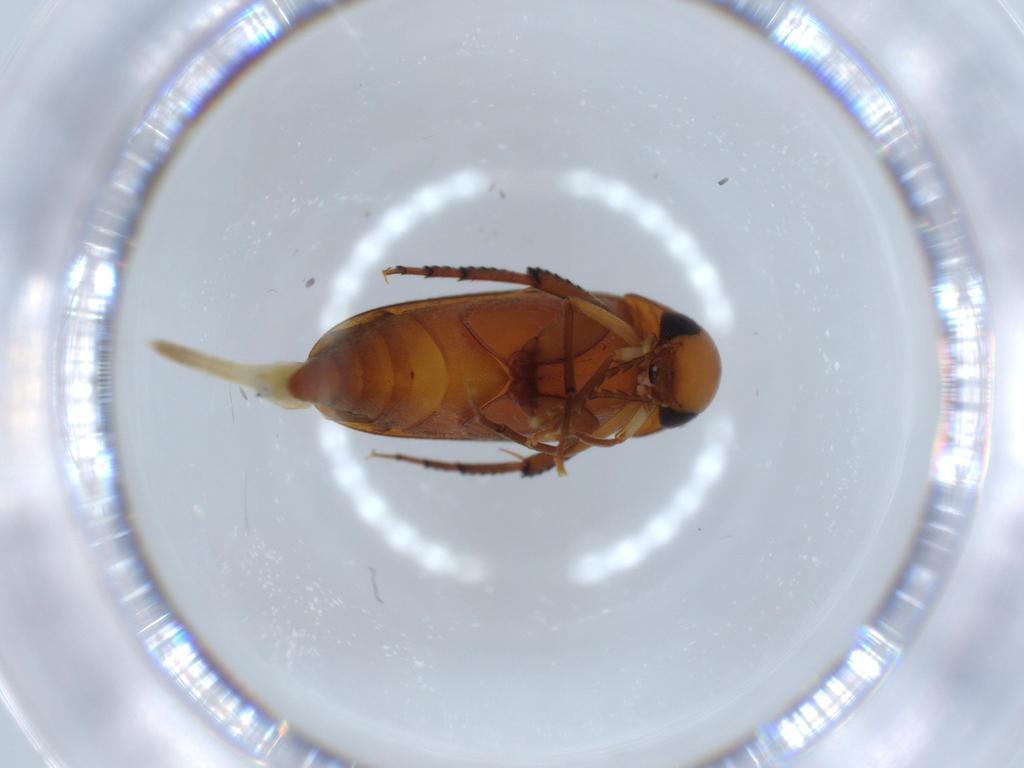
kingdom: Animalia
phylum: Arthropoda
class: Insecta
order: Coleoptera
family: Mordellidae
